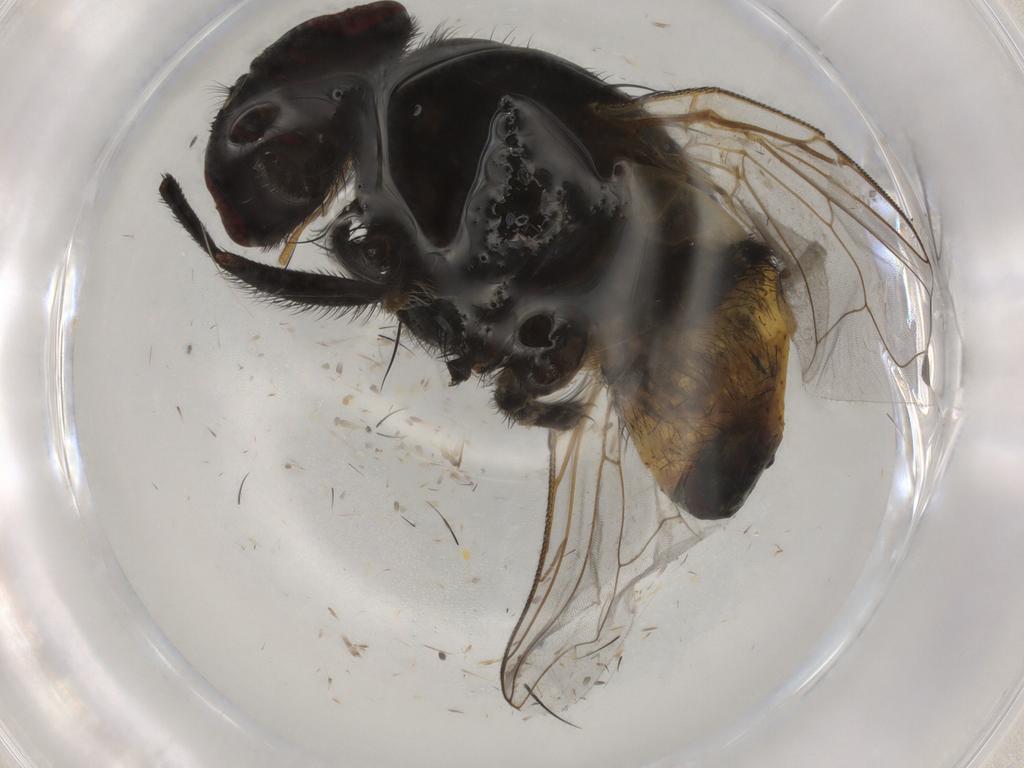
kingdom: Animalia
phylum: Arthropoda
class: Insecta
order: Diptera
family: Muscidae
